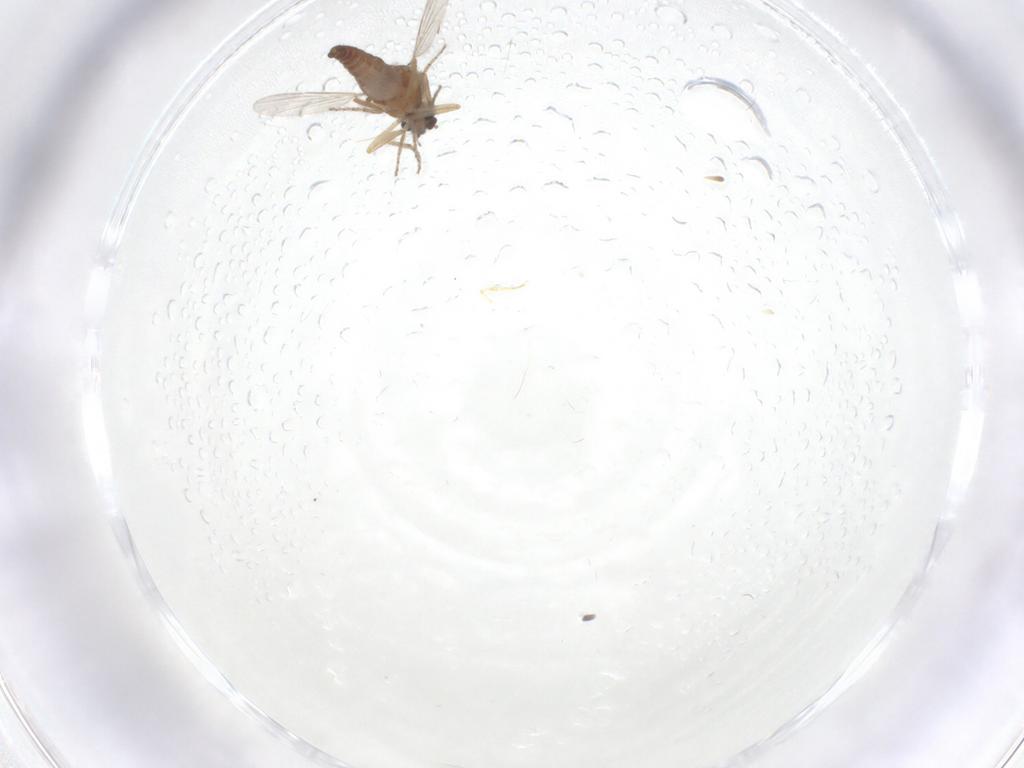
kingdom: Animalia
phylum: Arthropoda
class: Insecta
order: Diptera
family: Ceratopogonidae
